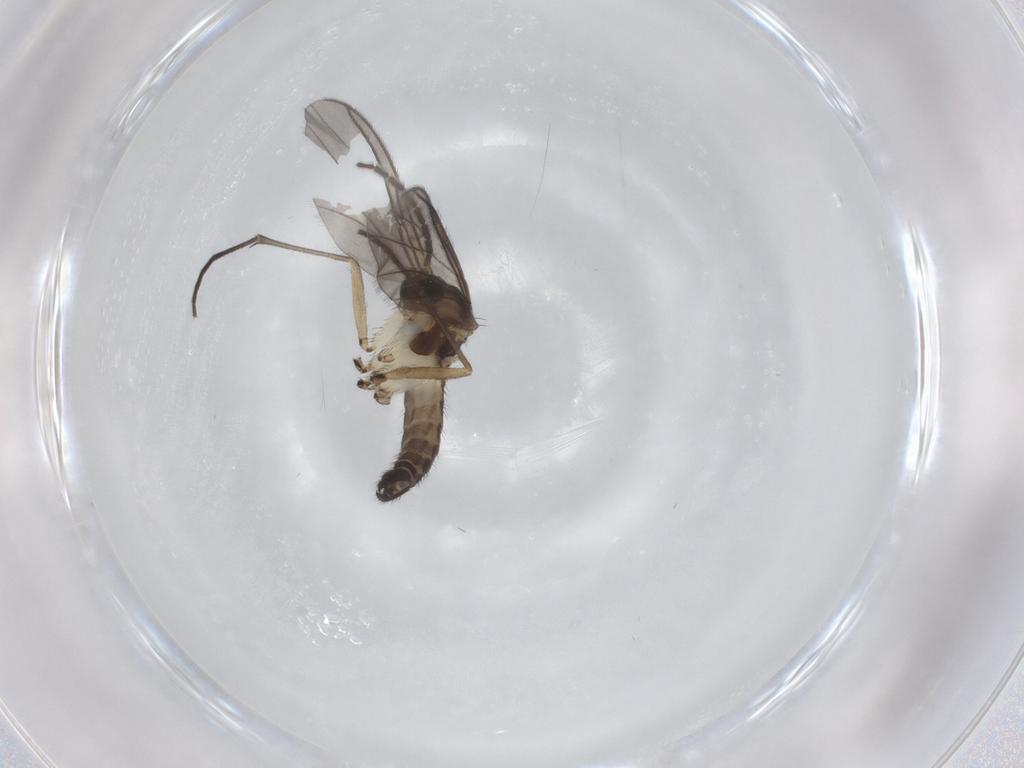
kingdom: Animalia
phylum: Arthropoda
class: Insecta
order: Diptera
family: Sciaridae
